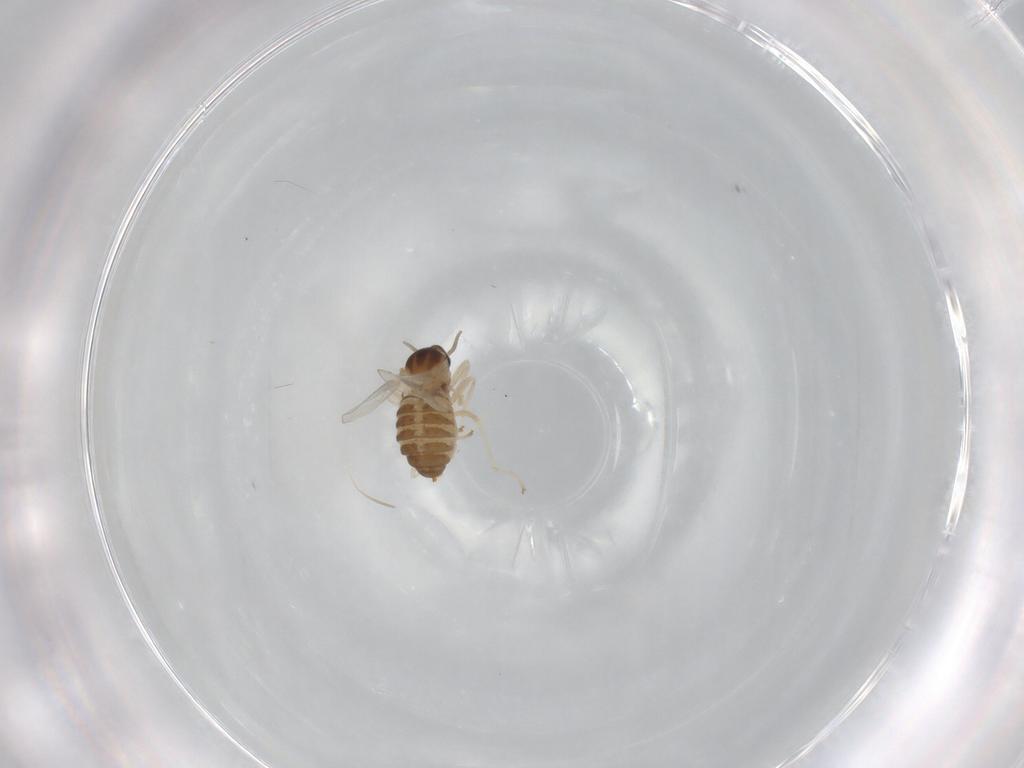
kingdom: Animalia
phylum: Arthropoda
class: Insecta
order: Diptera
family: Cecidomyiidae
